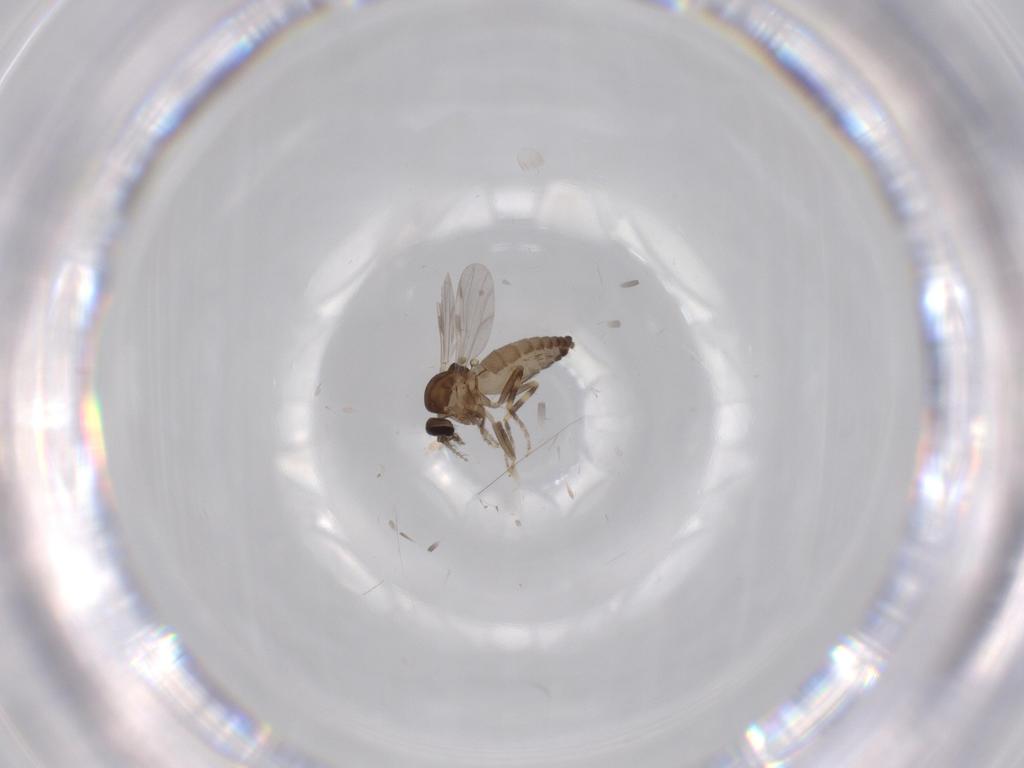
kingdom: Animalia
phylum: Arthropoda
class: Insecta
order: Diptera
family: Ceratopogonidae
